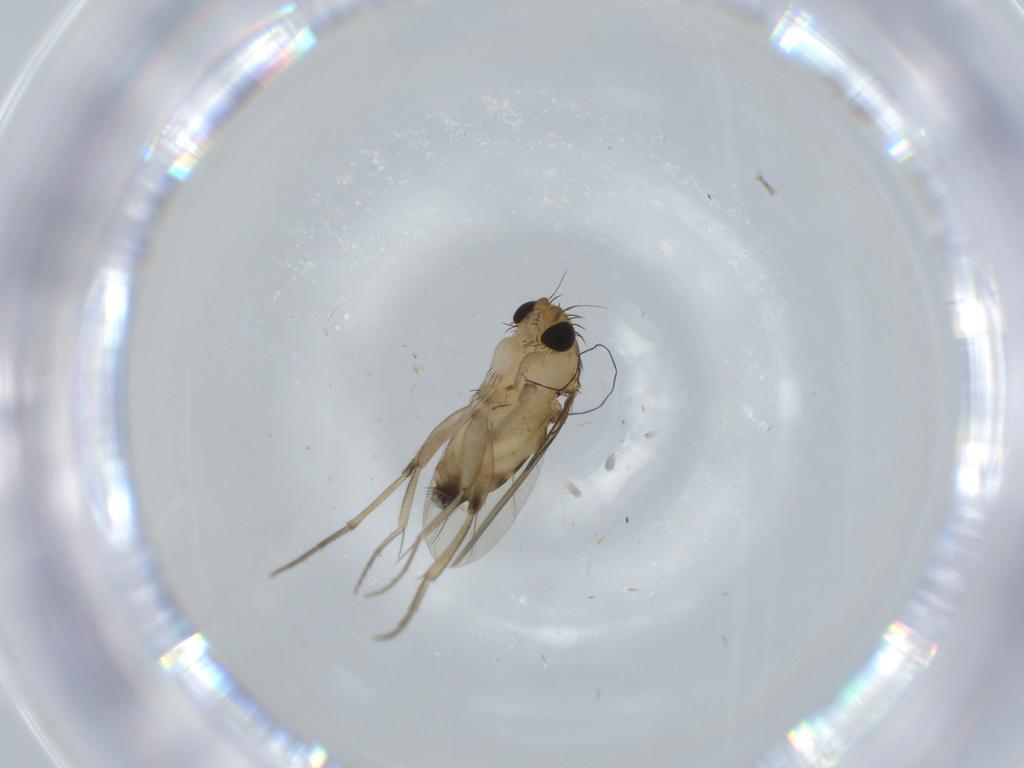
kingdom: Animalia
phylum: Arthropoda
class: Insecta
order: Diptera
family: Phoridae
